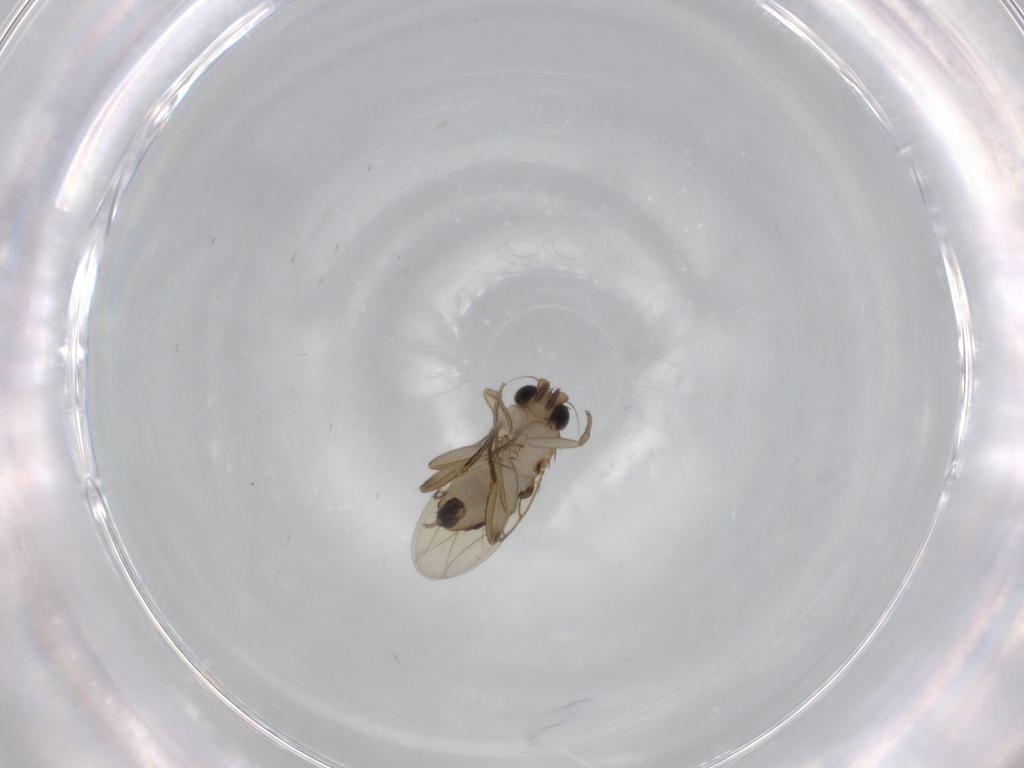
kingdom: Animalia
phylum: Arthropoda
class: Insecta
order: Diptera
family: Phoridae
